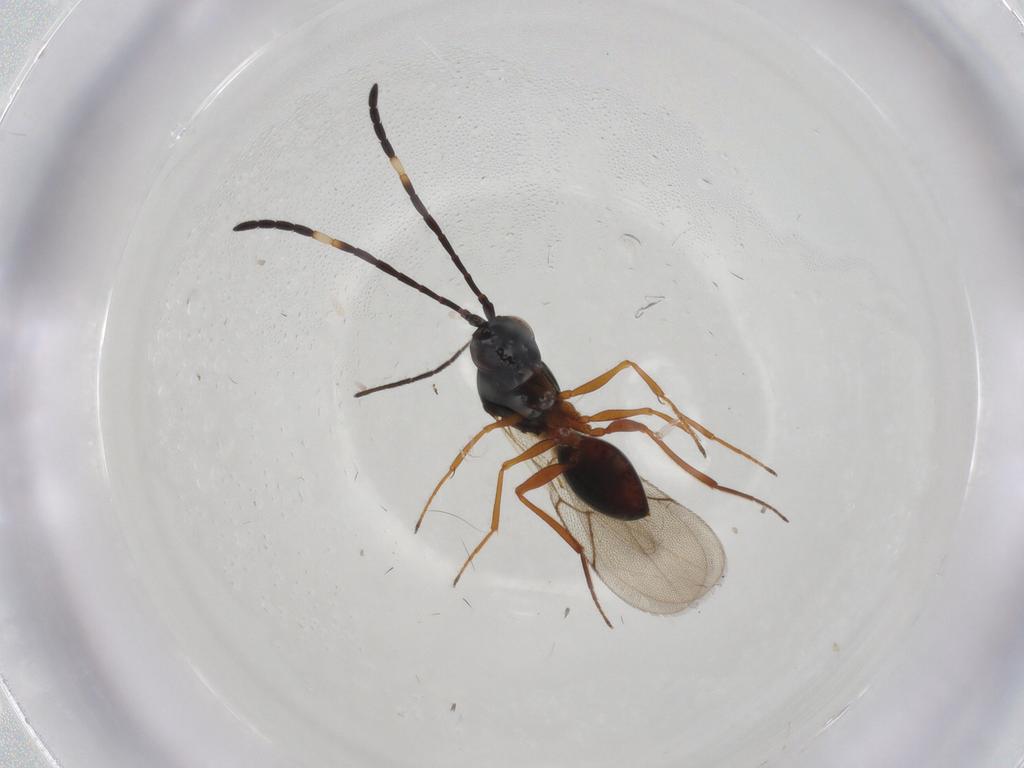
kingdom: Animalia
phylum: Arthropoda
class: Insecta
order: Hymenoptera
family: Figitidae
